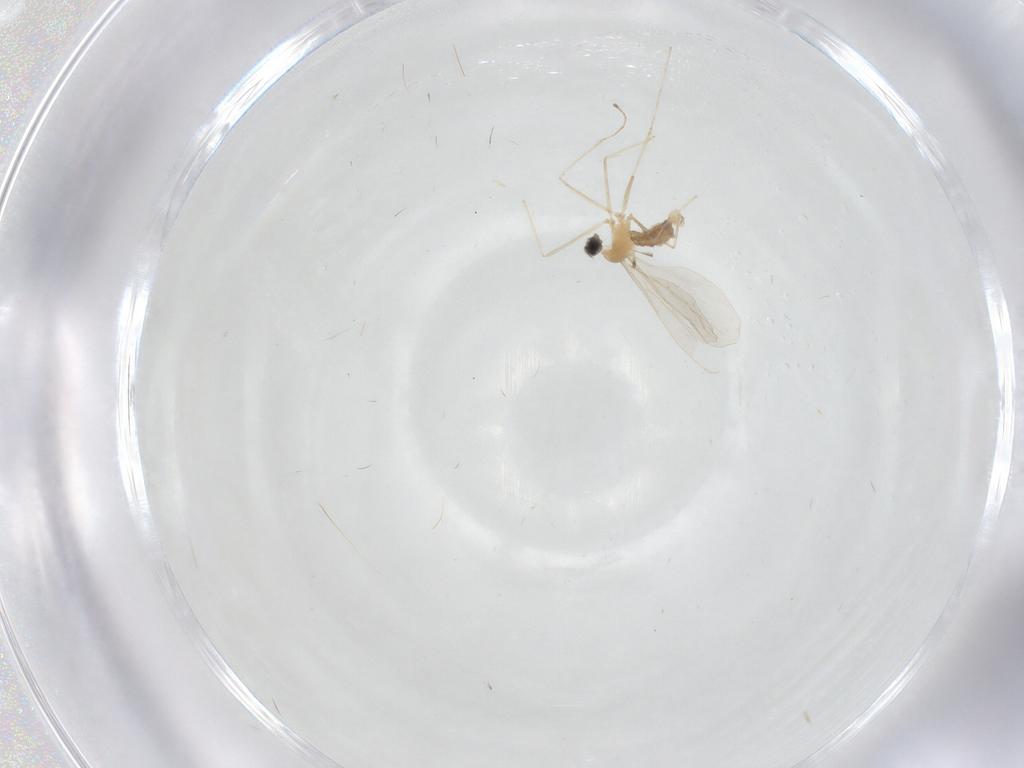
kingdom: Animalia
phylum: Arthropoda
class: Insecta
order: Diptera
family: Cecidomyiidae
